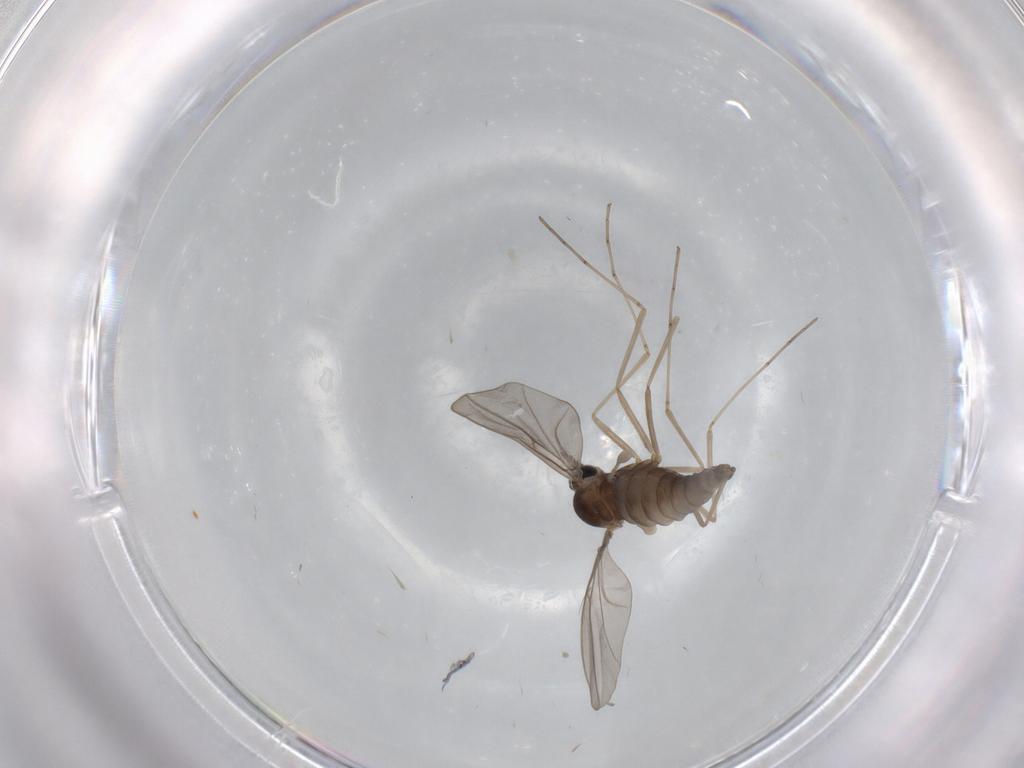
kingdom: Animalia
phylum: Arthropoda
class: Insecta
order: Diptera
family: Cecidomyiidae
